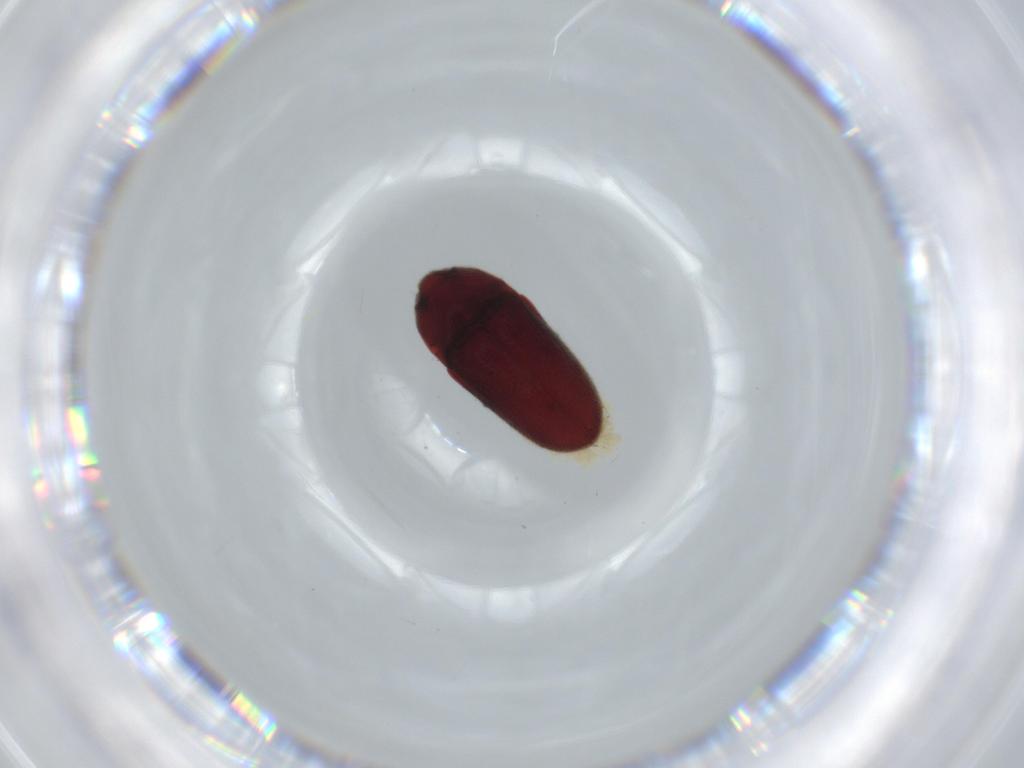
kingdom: Animalia
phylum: Arthropoda
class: Insecta
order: Coleoptera
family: Throscidae
